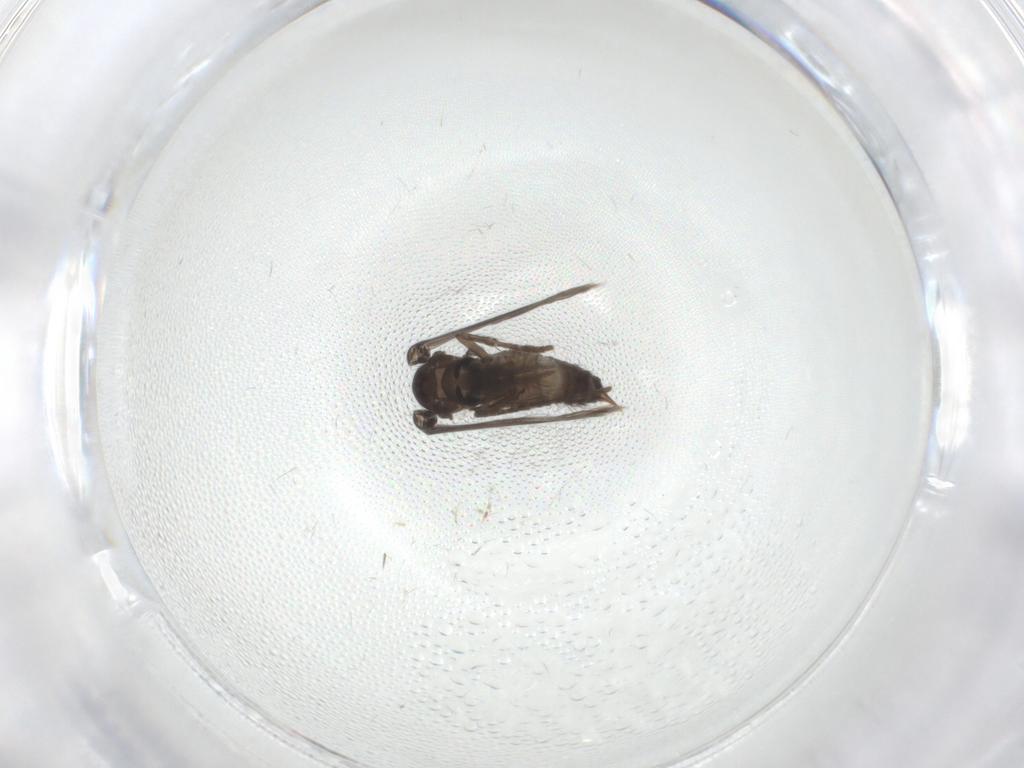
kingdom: Animalia
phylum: Arthropoda
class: Insecta
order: Diptera
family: Psychodidae
